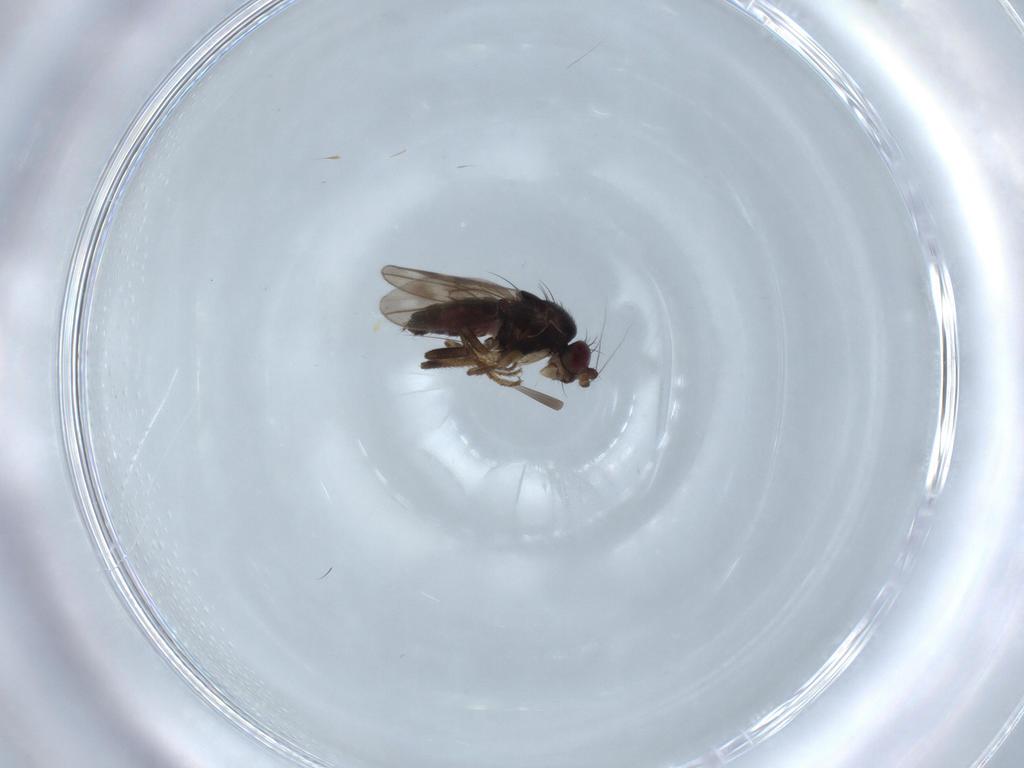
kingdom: Animalia
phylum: Arthropoda
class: Insecta
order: Diptera
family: Sphaeroceridae
